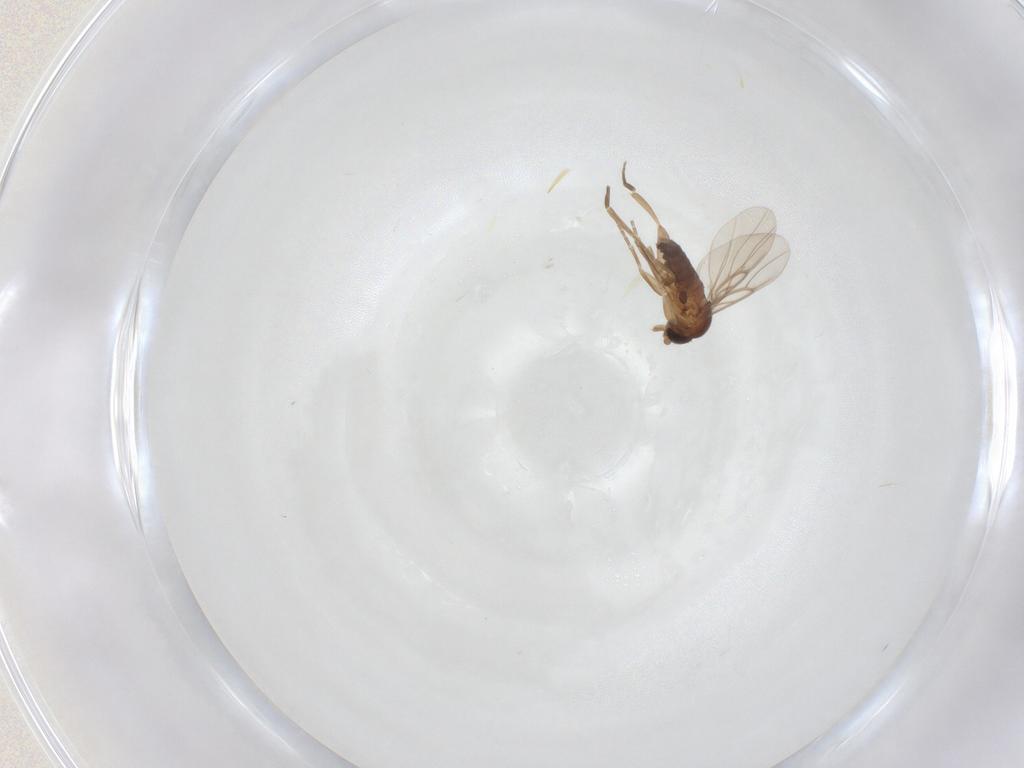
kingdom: Animalia
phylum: Arthropoda
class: Insecta
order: Diptera
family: Phoridae
